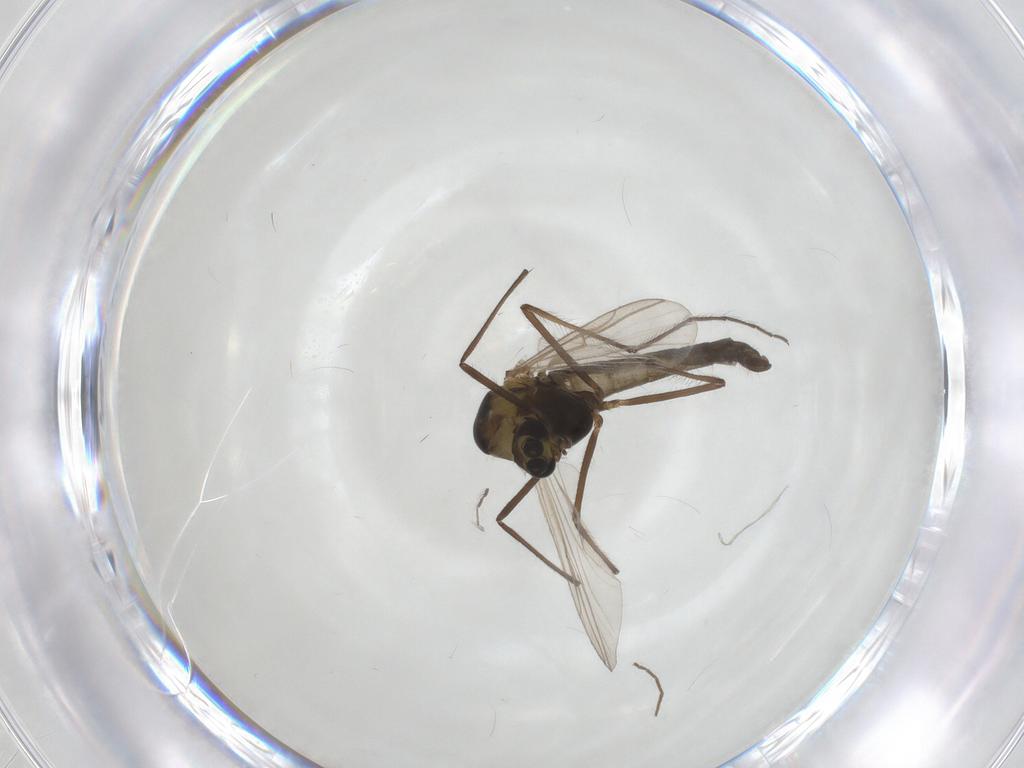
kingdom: Animalia
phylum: Arthropoda
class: Insecta
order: Diptera
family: Chironomidae
